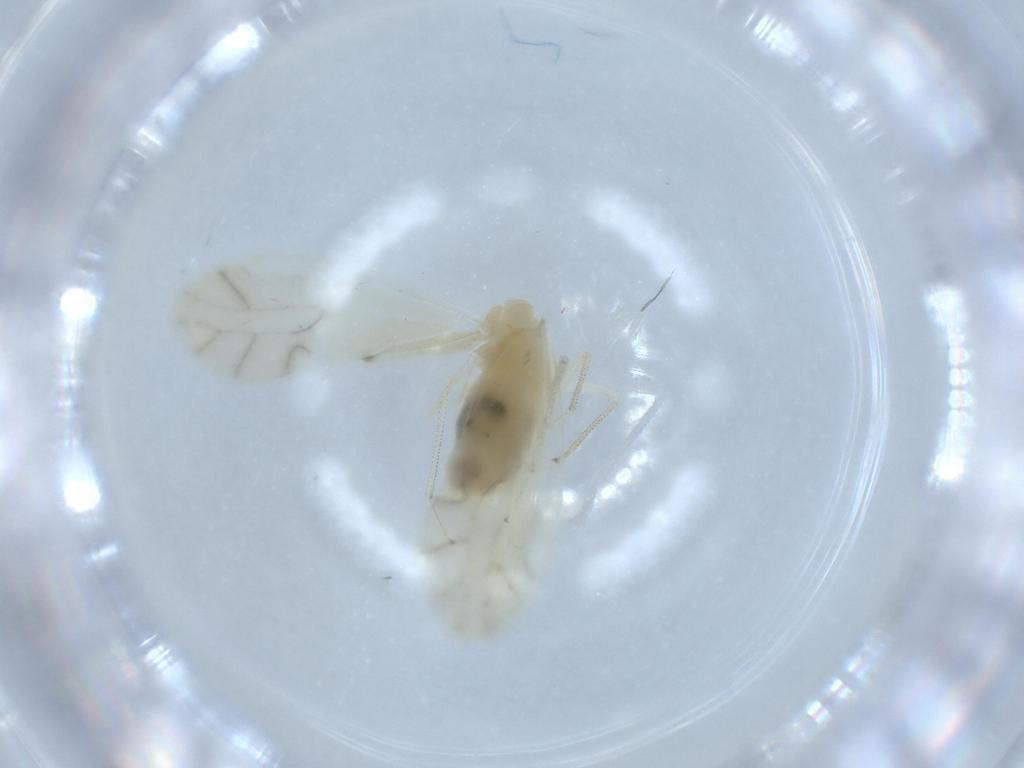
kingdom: Animalia
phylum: Arthropoda
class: Insecta
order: Psocodea
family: Caeciliusidae
